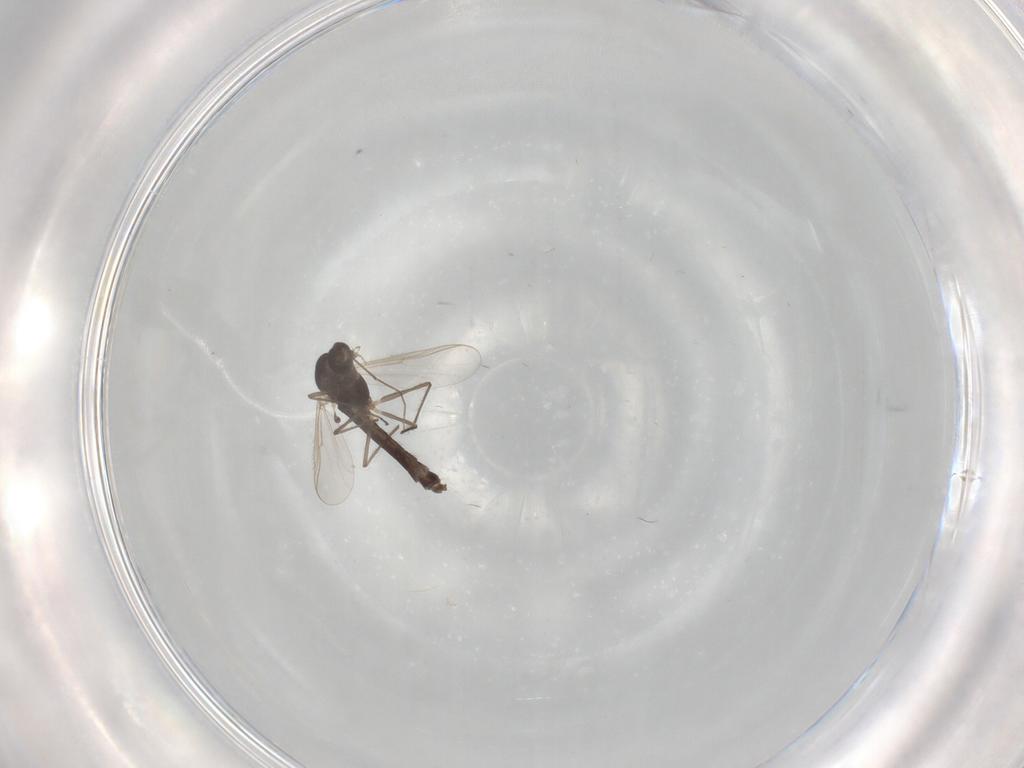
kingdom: Animalia
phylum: Arthropoda
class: Insecta
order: Diptera
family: Chironomidae
